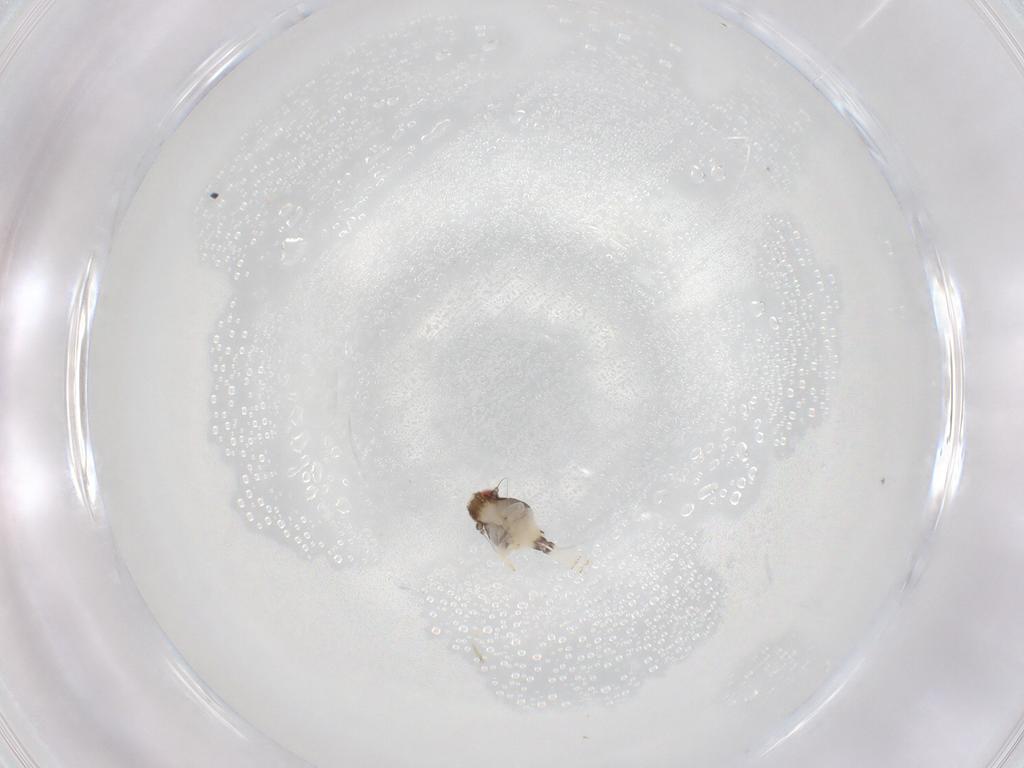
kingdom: Animalia
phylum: Arthropoda
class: Insecta
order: Hemiptera
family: Nogodinidae
